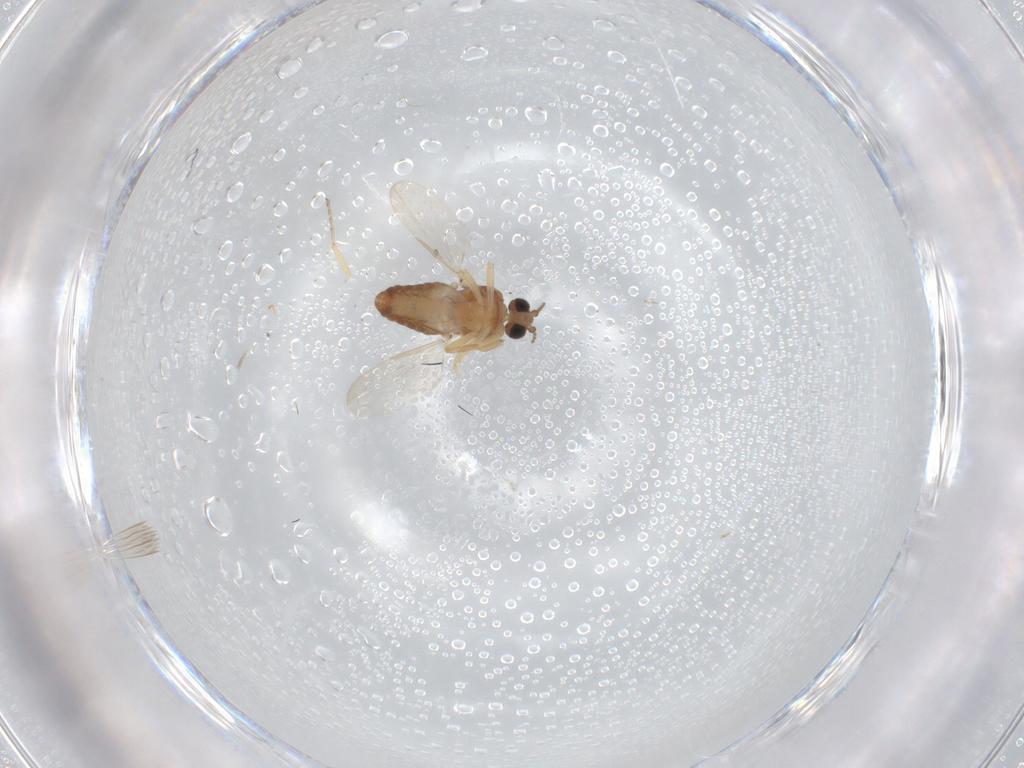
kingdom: Animalia
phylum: Arthropoda
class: Insecta
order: Diptera
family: Ceratopogonidae
